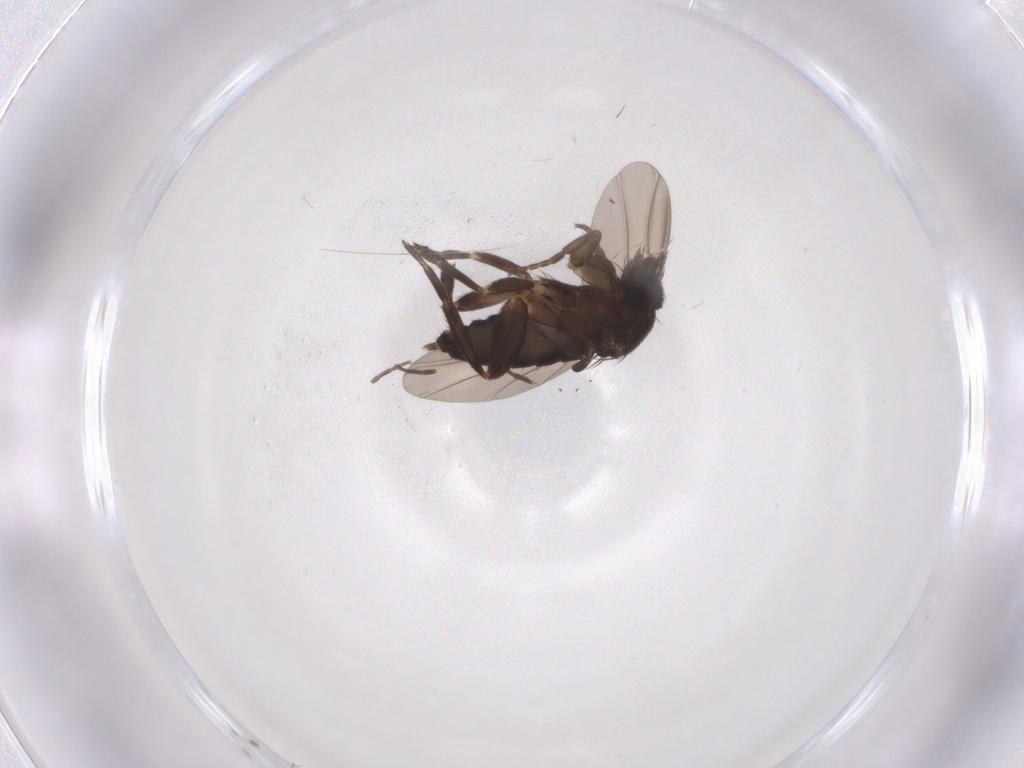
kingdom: Animalia
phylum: Arthropoda
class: Insecta
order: Diptera
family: Phoridae
